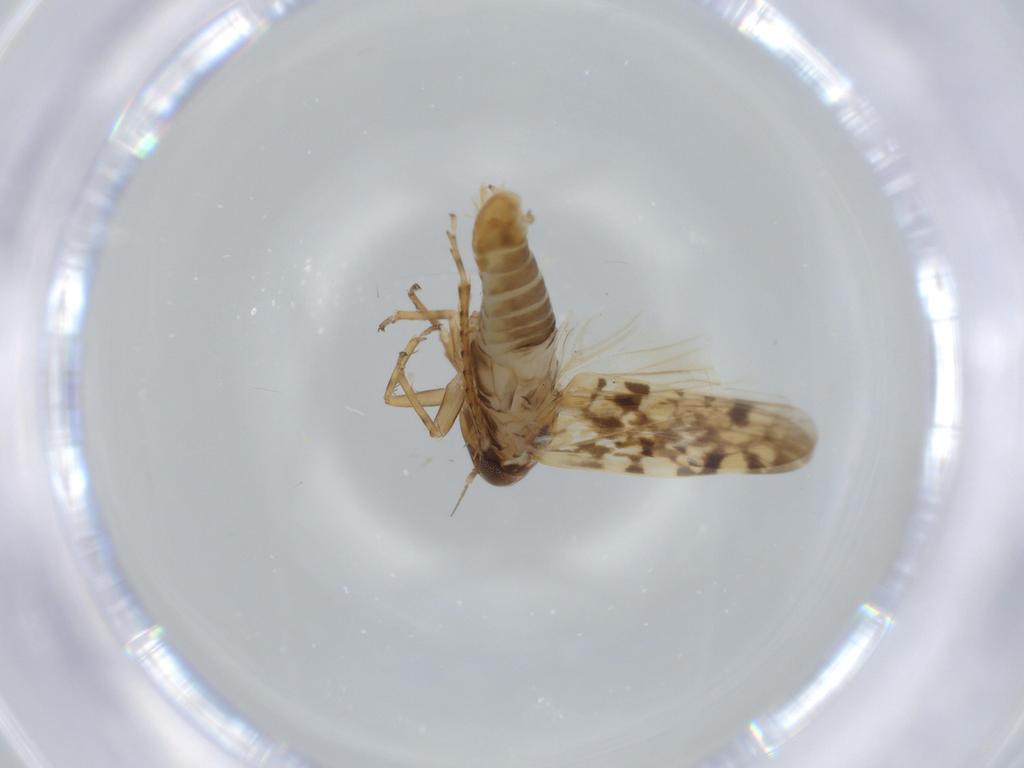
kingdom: Animalia
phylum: Arthropoda
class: Insecta
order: Hemiptera
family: Cicadellidae
